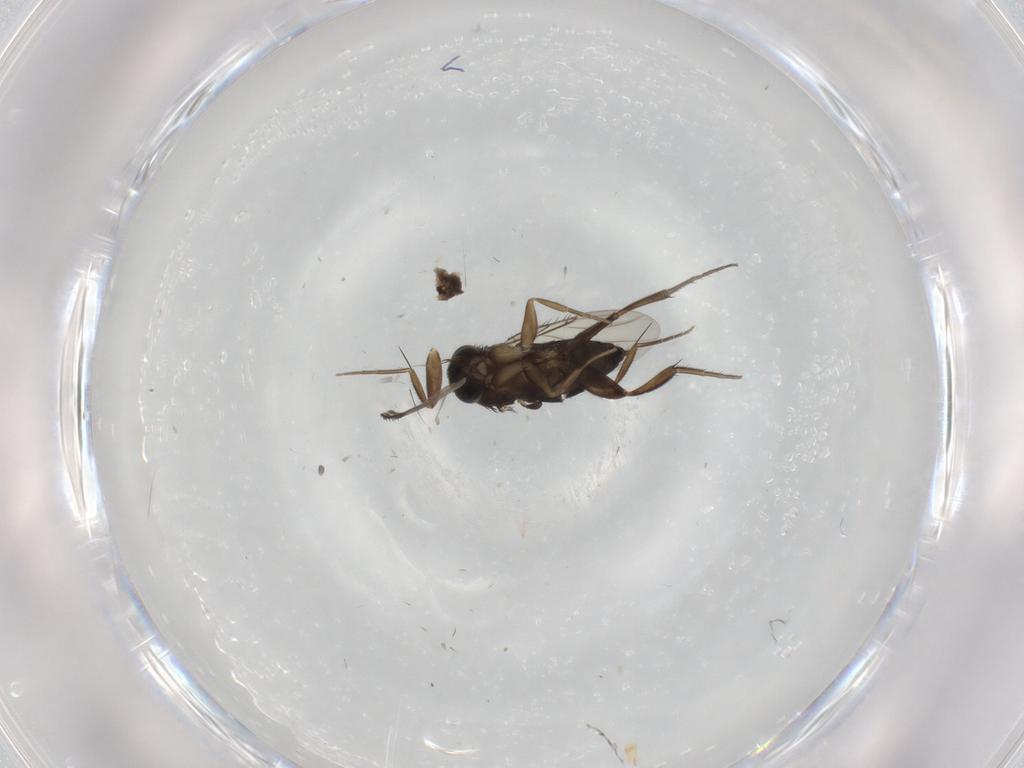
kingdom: Animalia
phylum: Arthropoda
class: Insecta
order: Diptera
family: Cecidomyiidae
